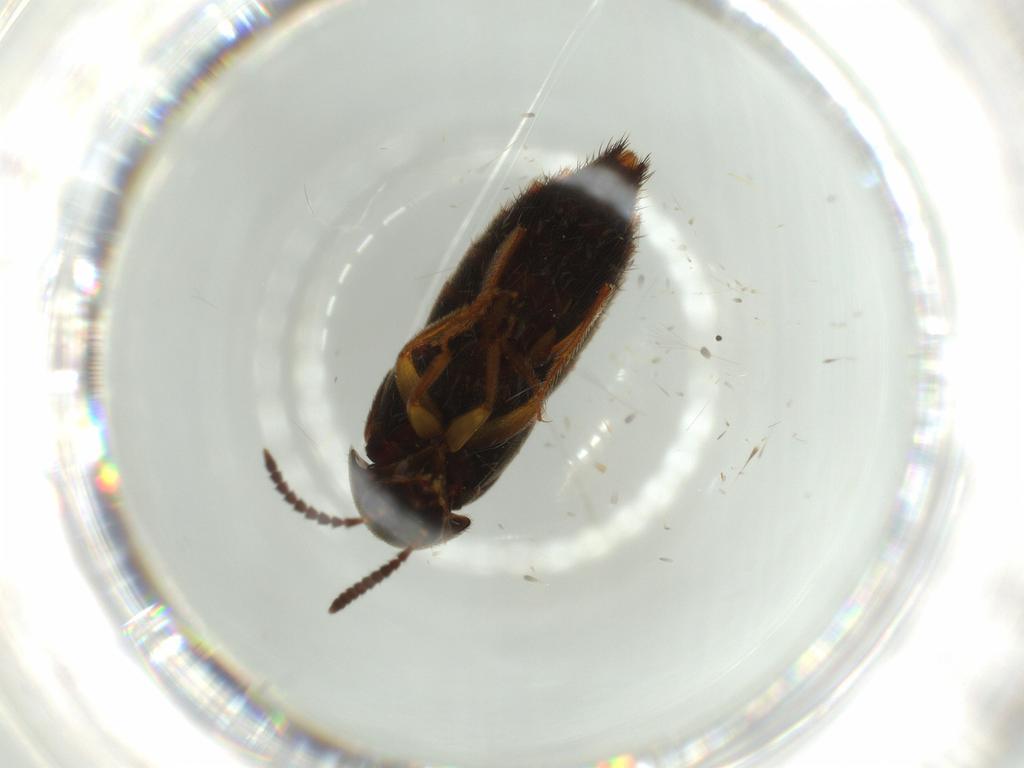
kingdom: Animalia
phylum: Arthropoda
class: Insecta
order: Coleoptera
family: Staphylinidae
